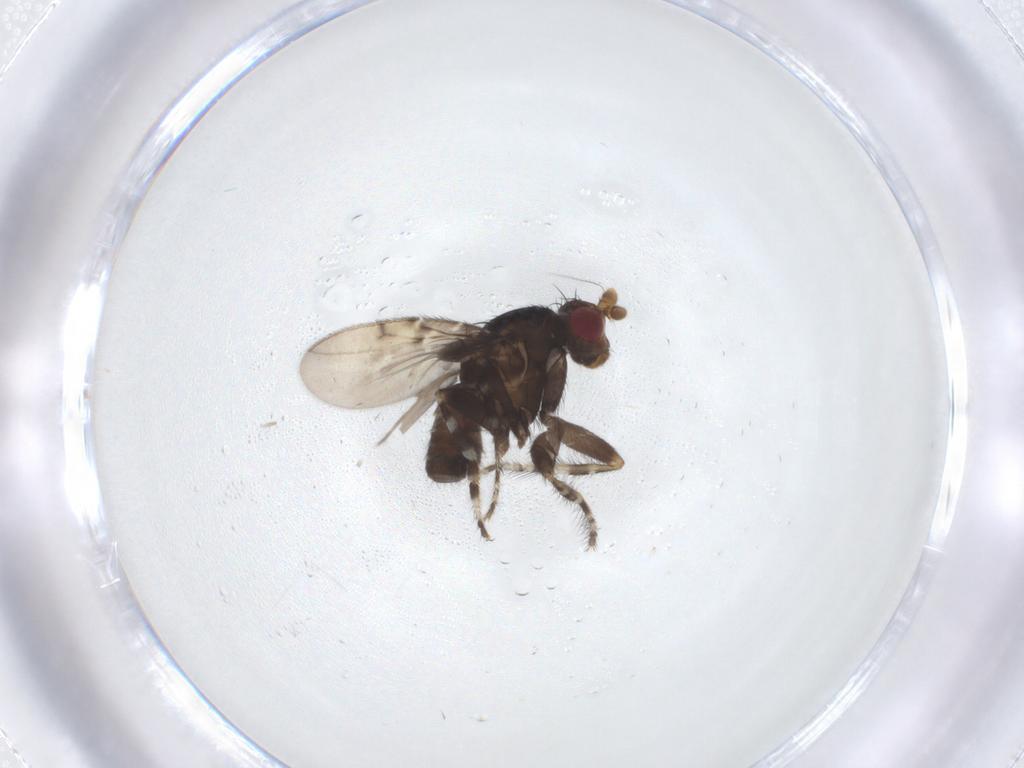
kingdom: Animalia
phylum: Arthropoda
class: Insecta
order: Diptera
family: Sphaeroceridae
